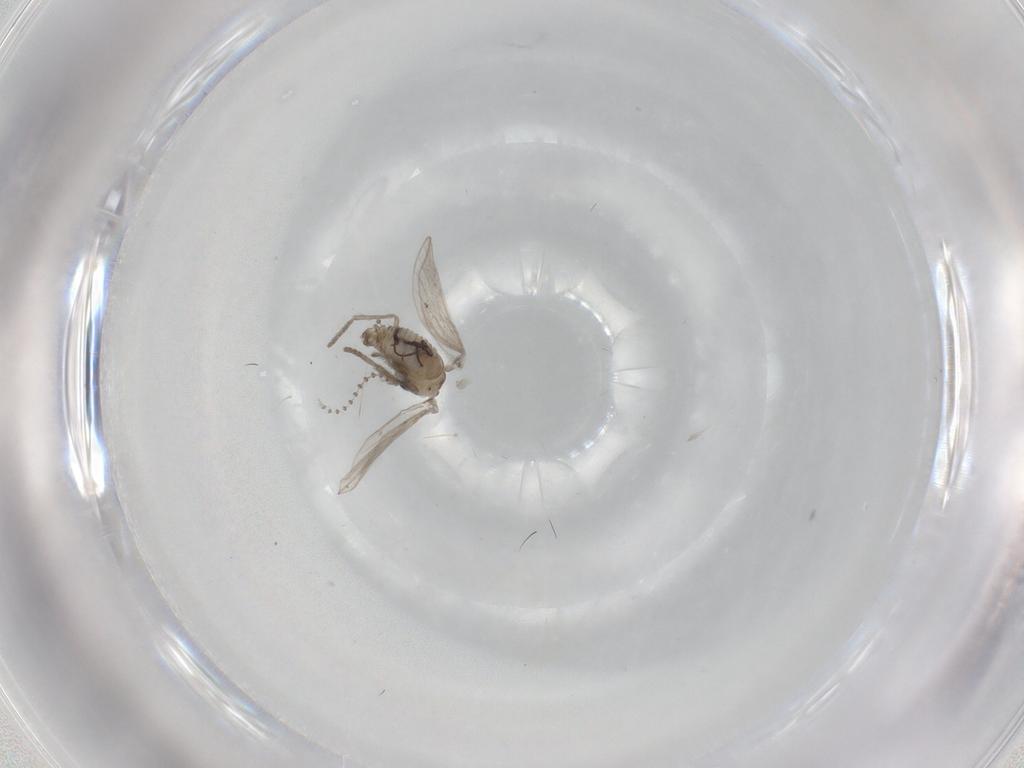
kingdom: Animalia
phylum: Arthropoda
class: Insecta
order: Diptera
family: Psychodidae
